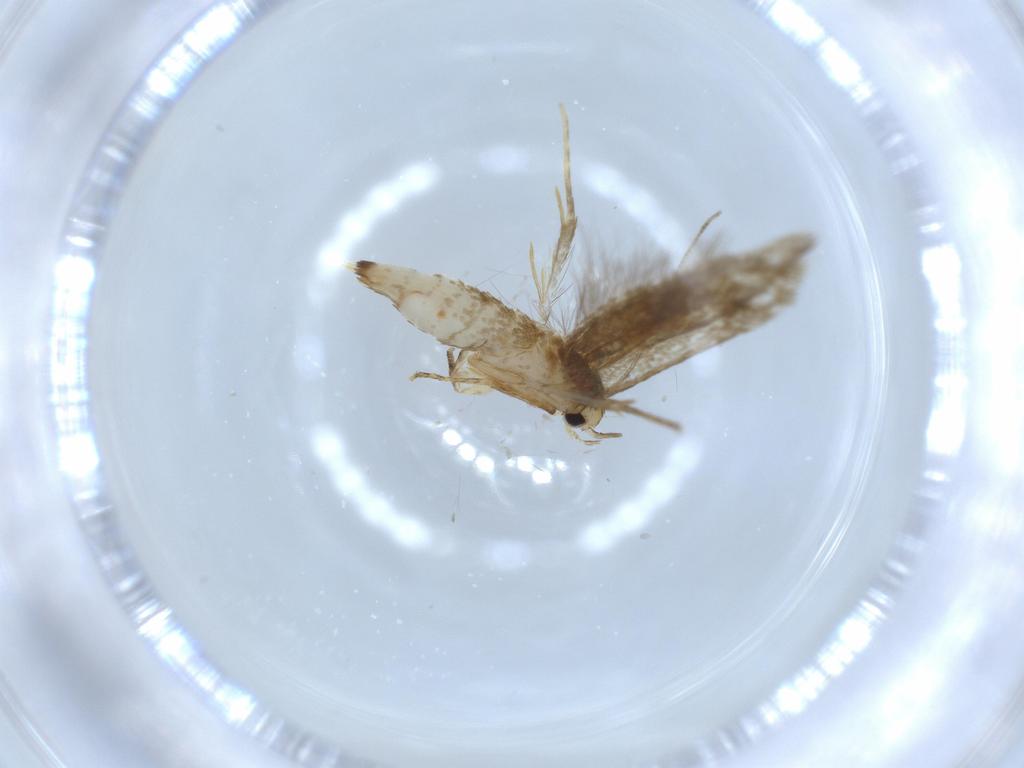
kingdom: Animalia
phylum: Arthropoda
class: Insecta
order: Lepidoptera
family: Tineidae
